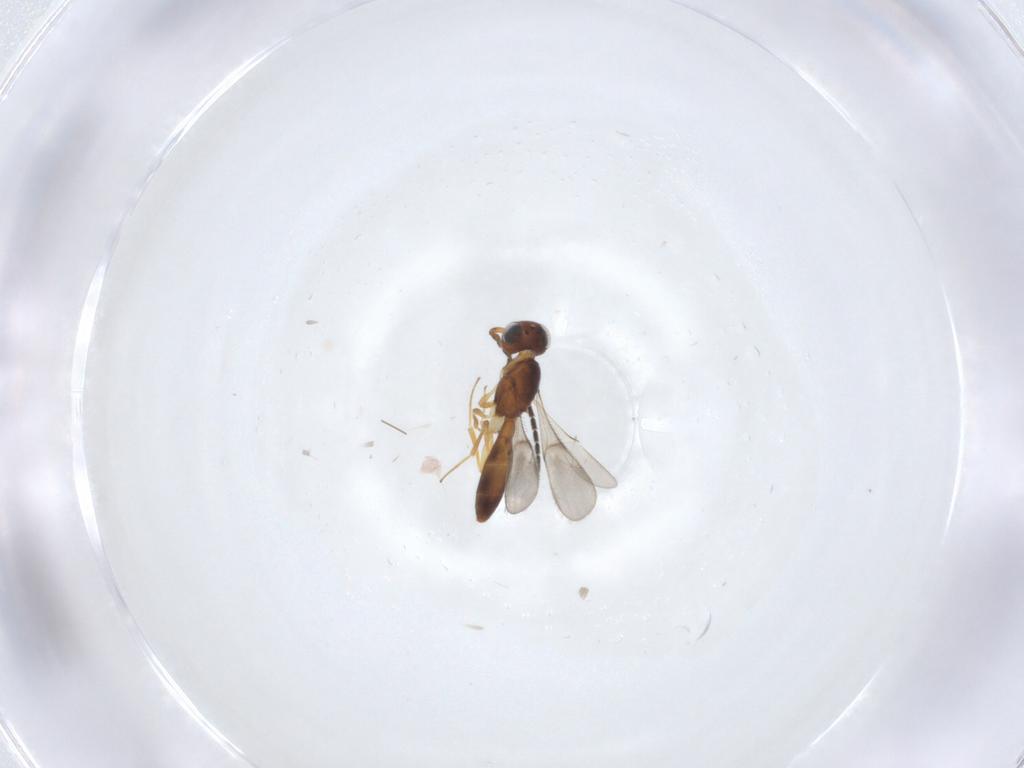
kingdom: Animalia
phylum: Arthropoda
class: Insecta
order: Hymenoptera
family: Scelionidae
